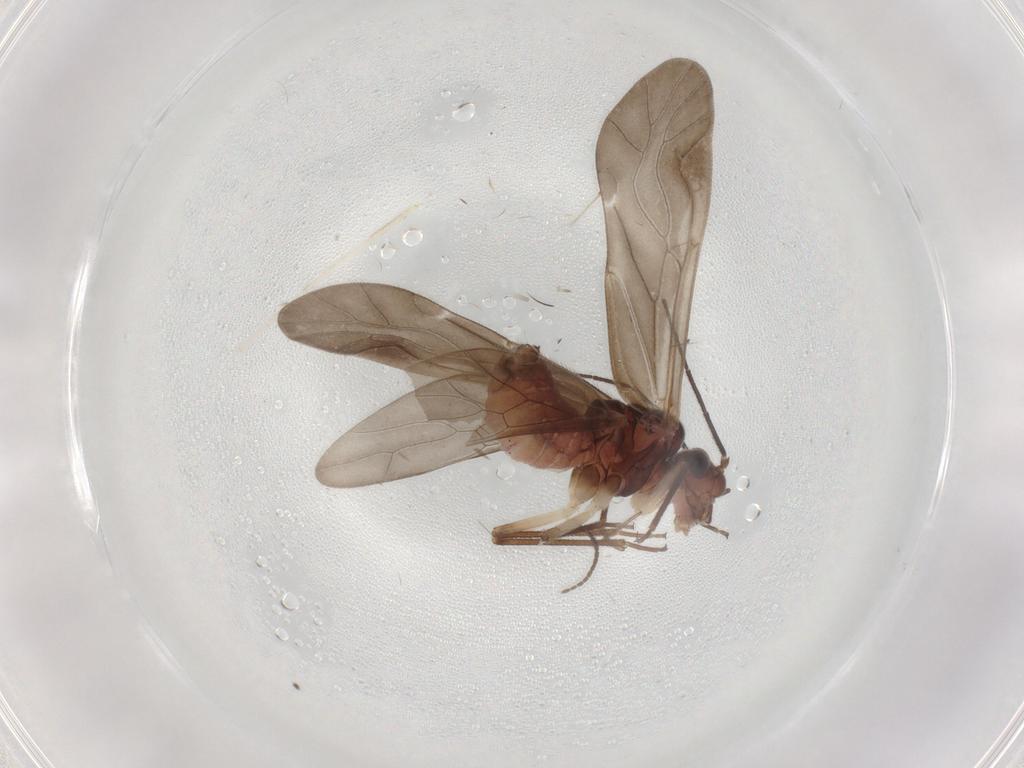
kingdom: Animalia
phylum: Arthropoda
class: Insecta
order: Psocodea
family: Caeciliusidae
